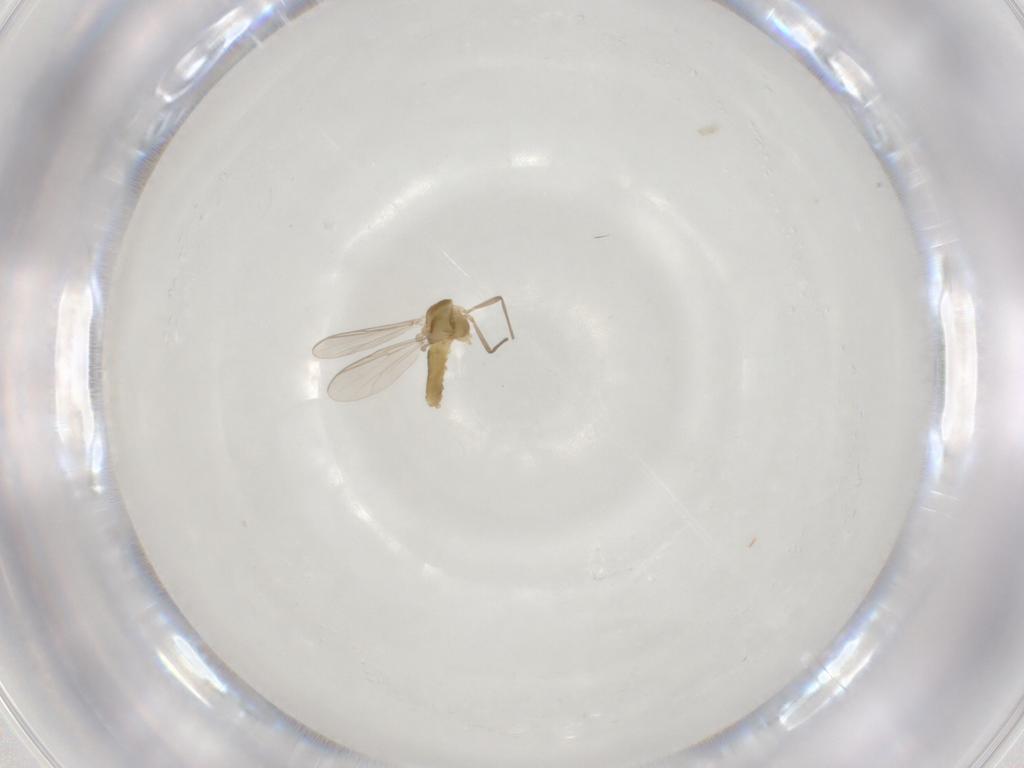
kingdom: Animalia
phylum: Arthropoda
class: Insecta
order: Diptera
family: Chironomidae
